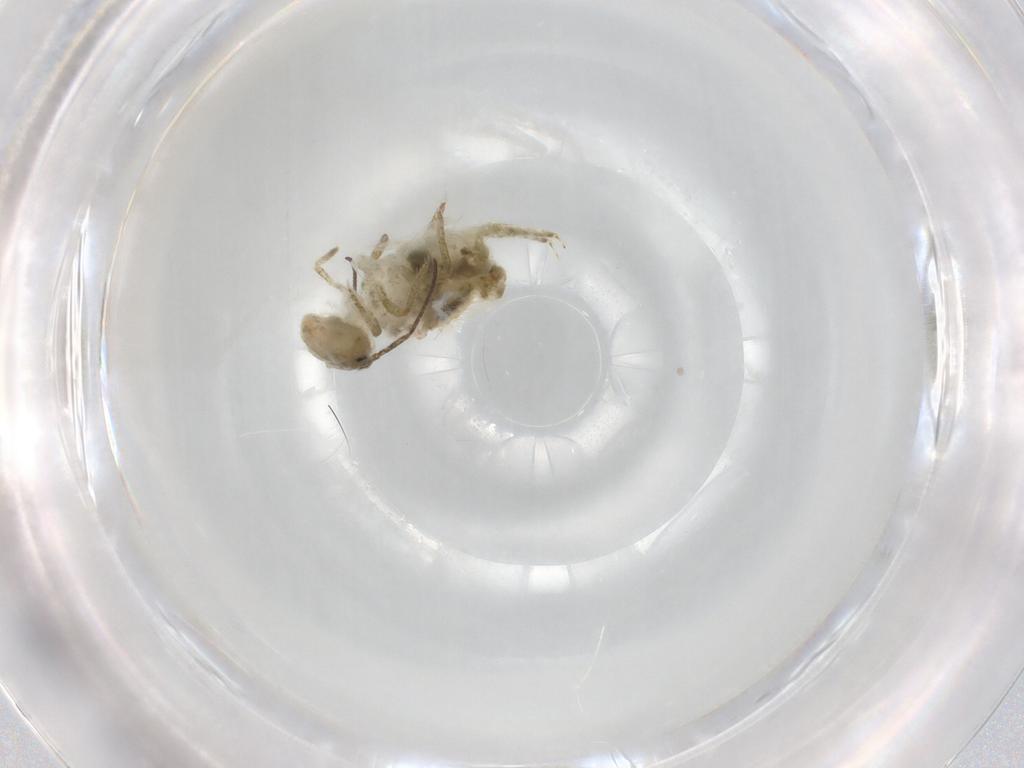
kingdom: Animalia
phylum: Arthropoda
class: Collembola
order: Symphypleona
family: Sminthuridae
